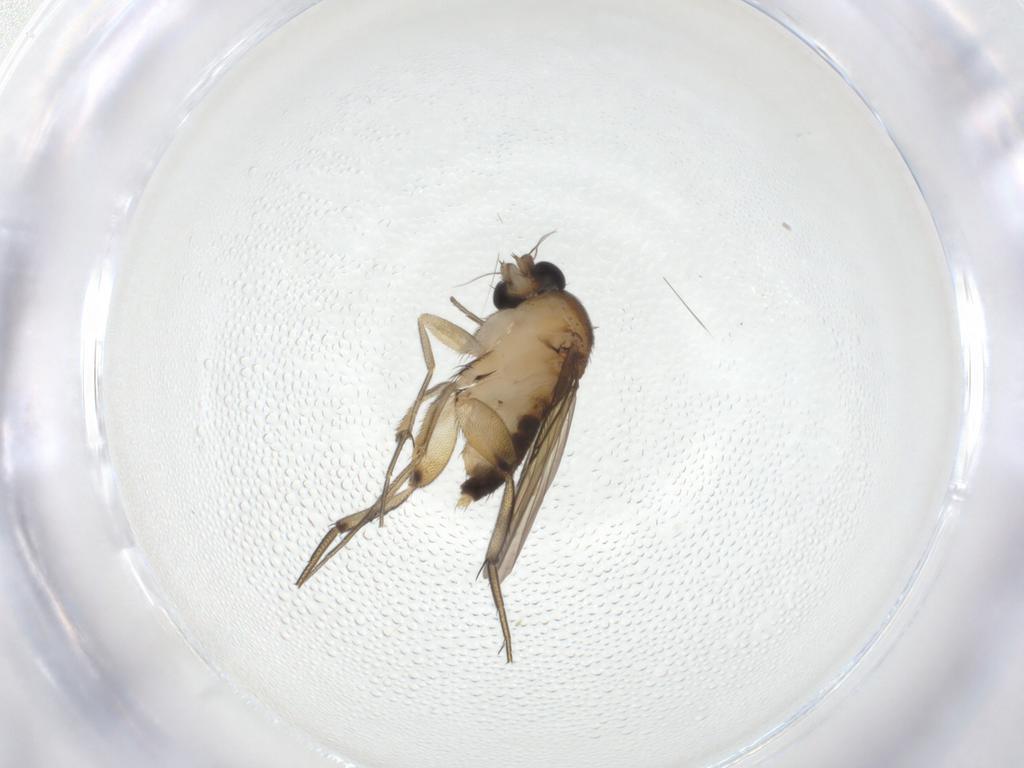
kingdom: Animalia
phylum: Arthropoda
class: Insecta
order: Diptera
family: Phoridae
